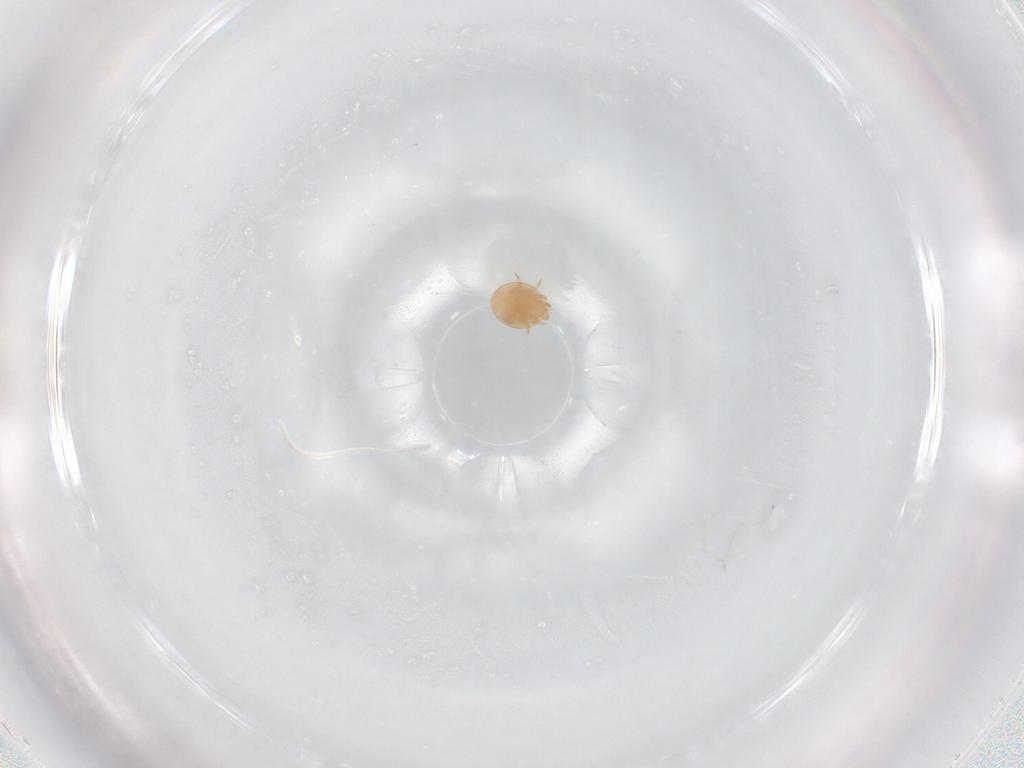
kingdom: Animalia
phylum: Arthropoda
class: Arachnida
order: Mesostigmata
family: Trematuridae
